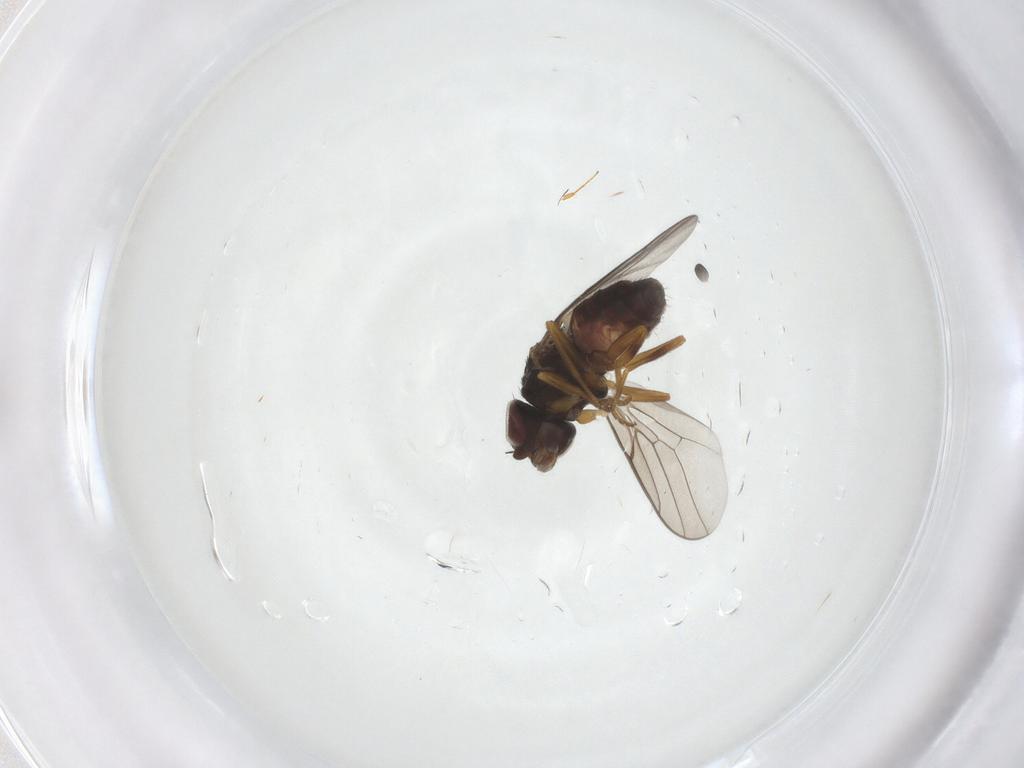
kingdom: Animalia
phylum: Arthropoda
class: Insecta
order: Diptera
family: Chloropidae
